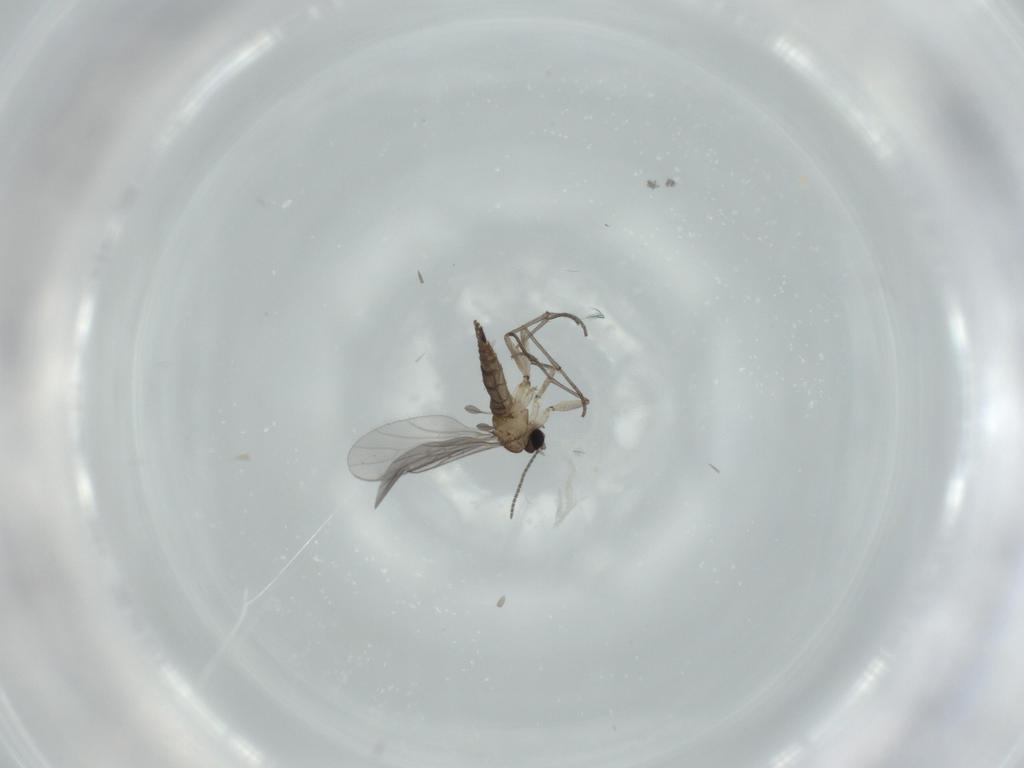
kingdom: Animalia
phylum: Arthropoda
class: Insecta
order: Diptera
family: Sciaridae
